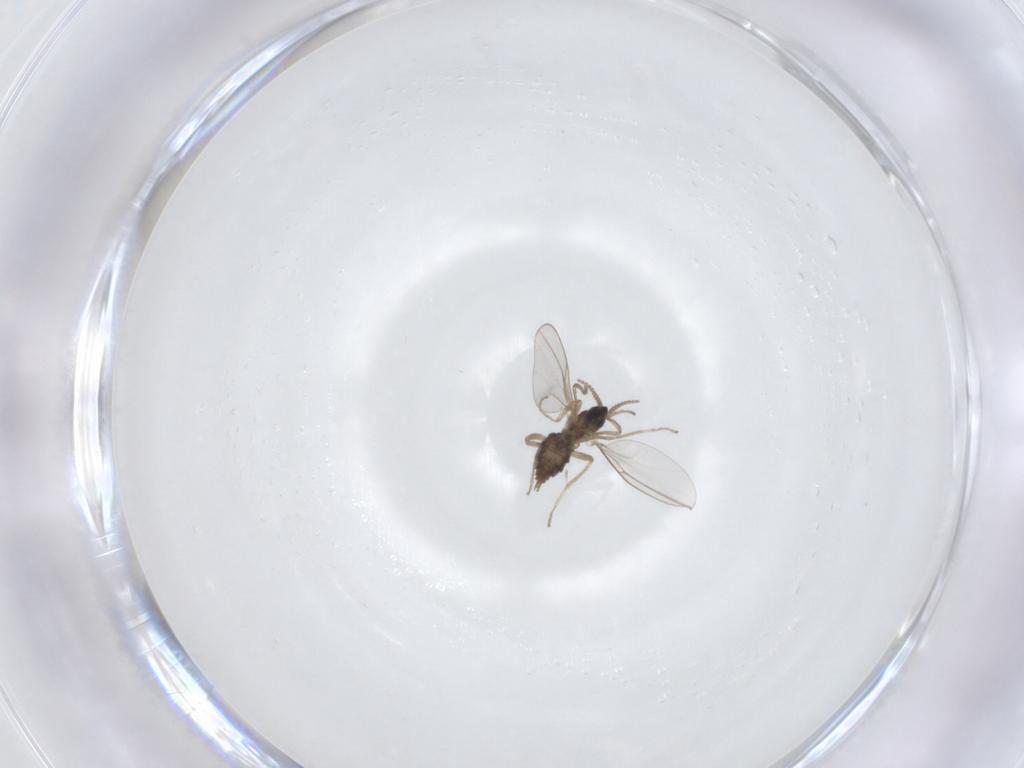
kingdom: Animalia
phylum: Arthropoda
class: Insecta
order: Diptera
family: Cecidomyiidae
